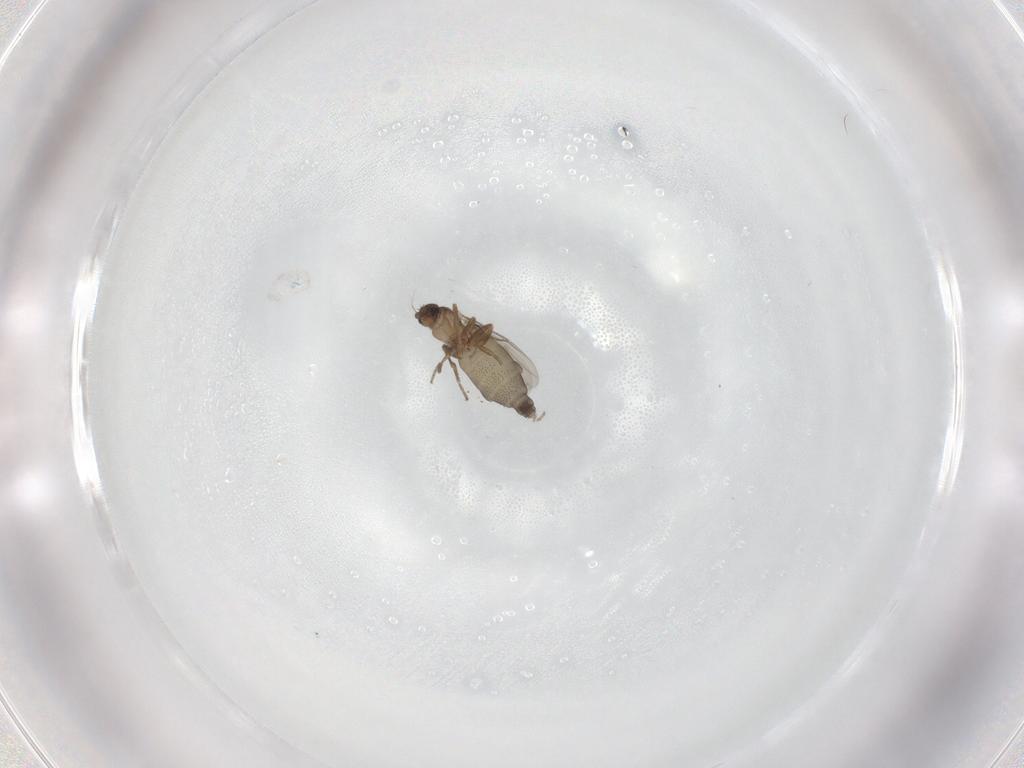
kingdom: Animalia
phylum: Arthropoda
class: Insecta
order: Diptera
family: Phoridae
